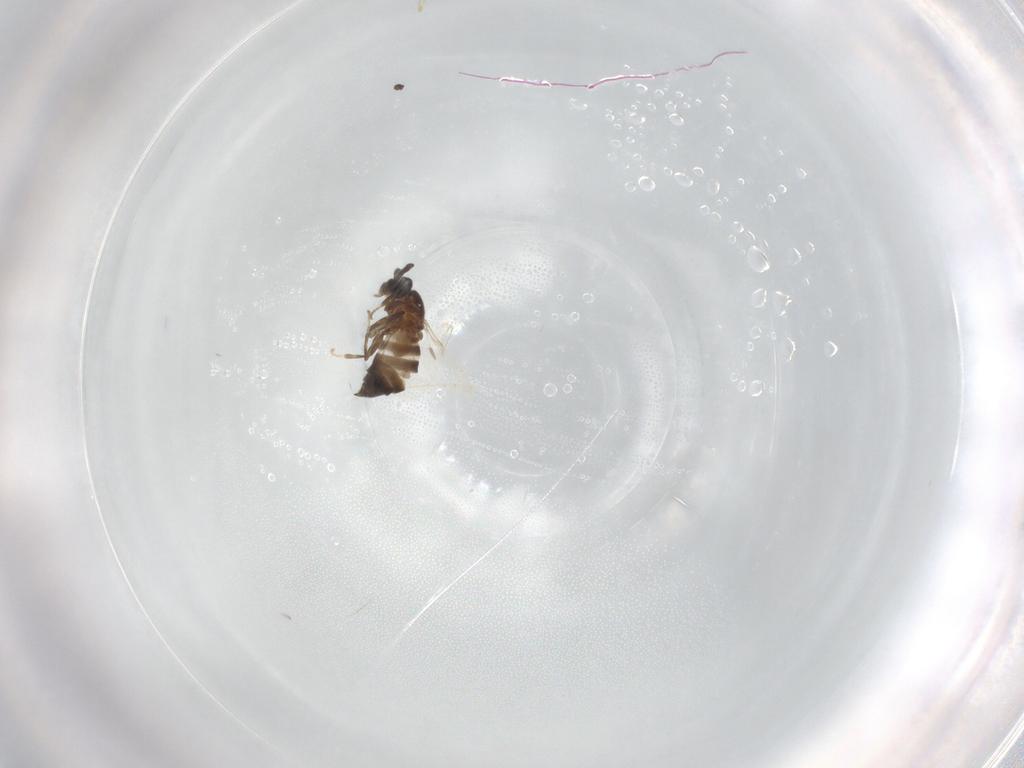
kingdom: Animalia
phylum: Arthropoda
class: Insecta
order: Diptera
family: Scatopsidae
